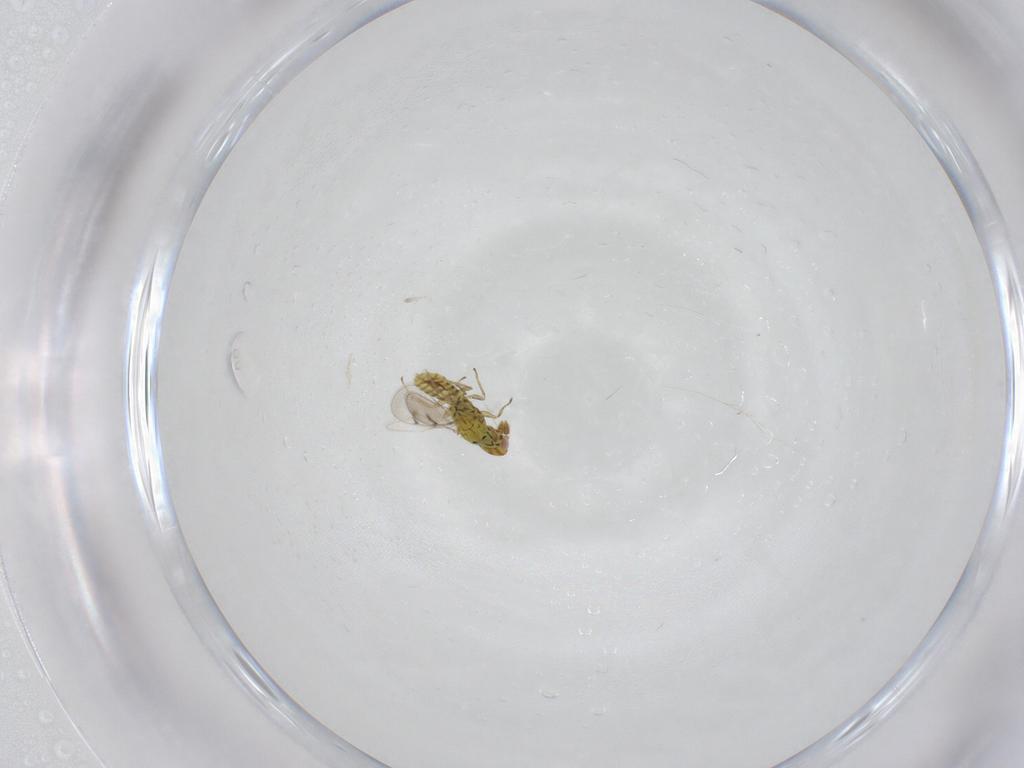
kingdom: Animalia
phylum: Arthropoda
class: Insecta
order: Hymenoptera
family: Eulophidae
